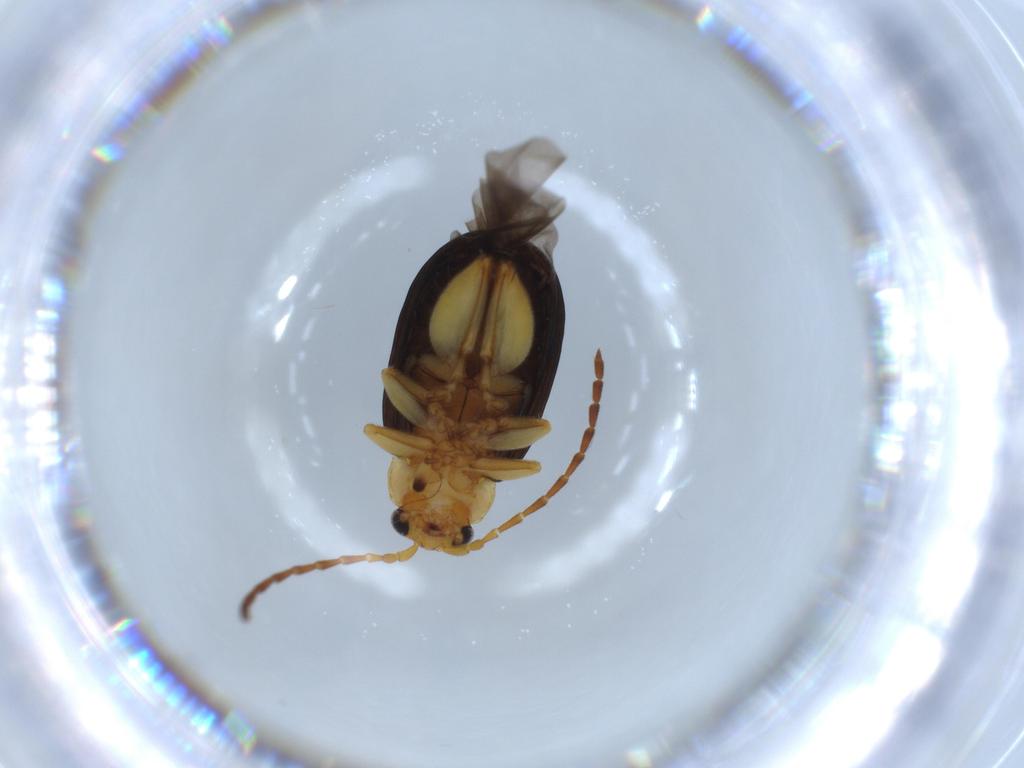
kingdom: Animalia
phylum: Arthropoda
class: Insecta
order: Coleoptera
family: Chrysomelidae
